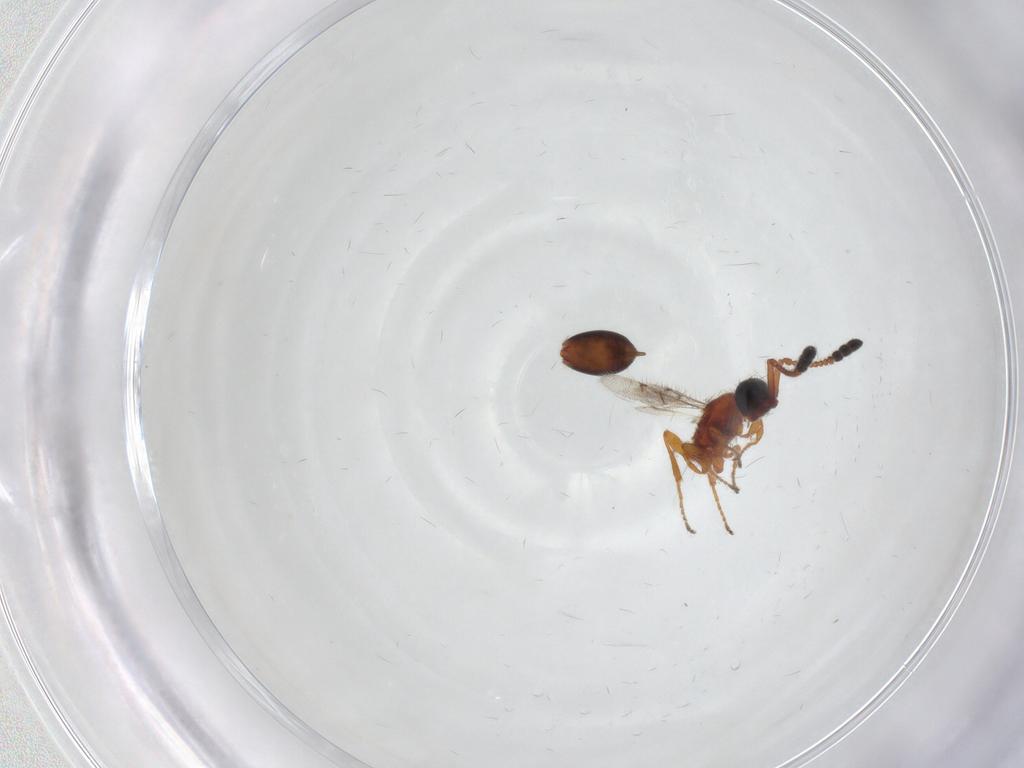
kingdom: Animalia
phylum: Arthropoda
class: Insecta
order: Hymenoptera
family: Diapriidae
